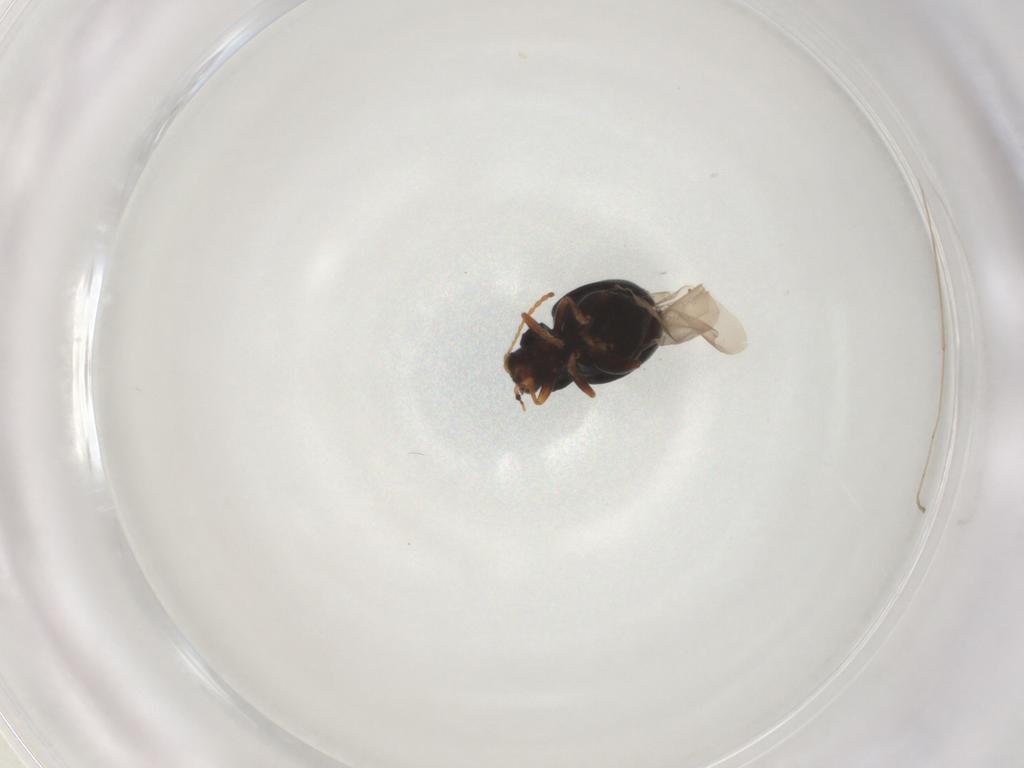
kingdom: Animalia
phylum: Arthropoda
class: Insecta
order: Coleoptera
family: Chrysomelidae
